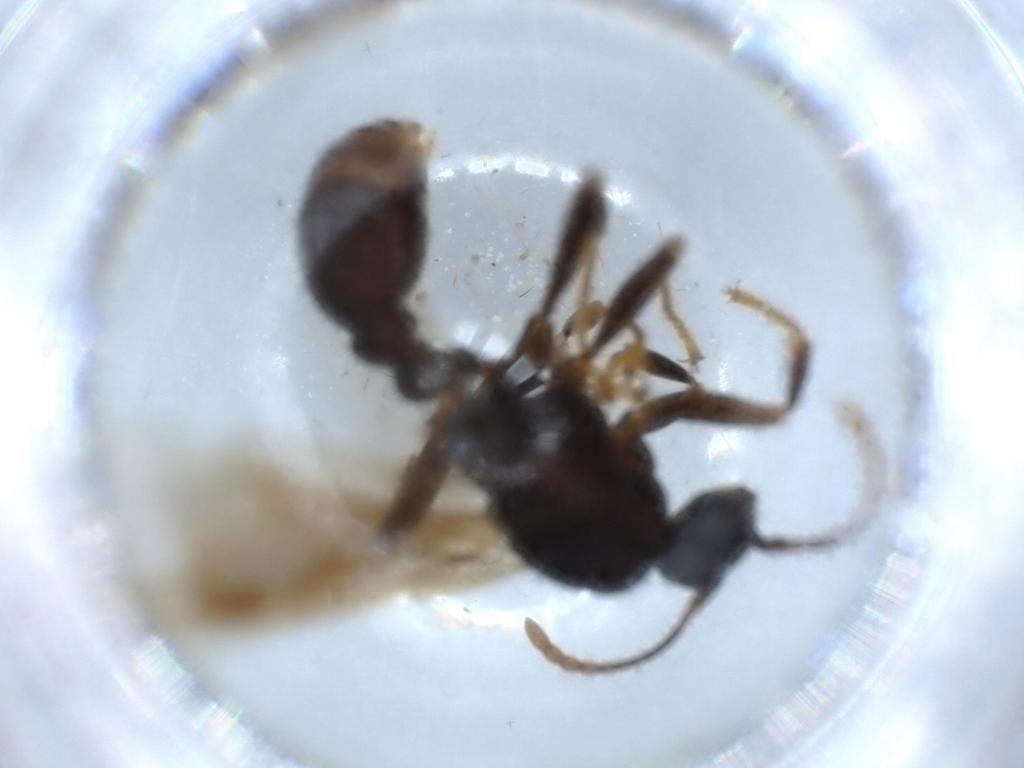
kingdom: Animalia
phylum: Arthropoda
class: Insecta
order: Hymenoptera
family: Formicidae
